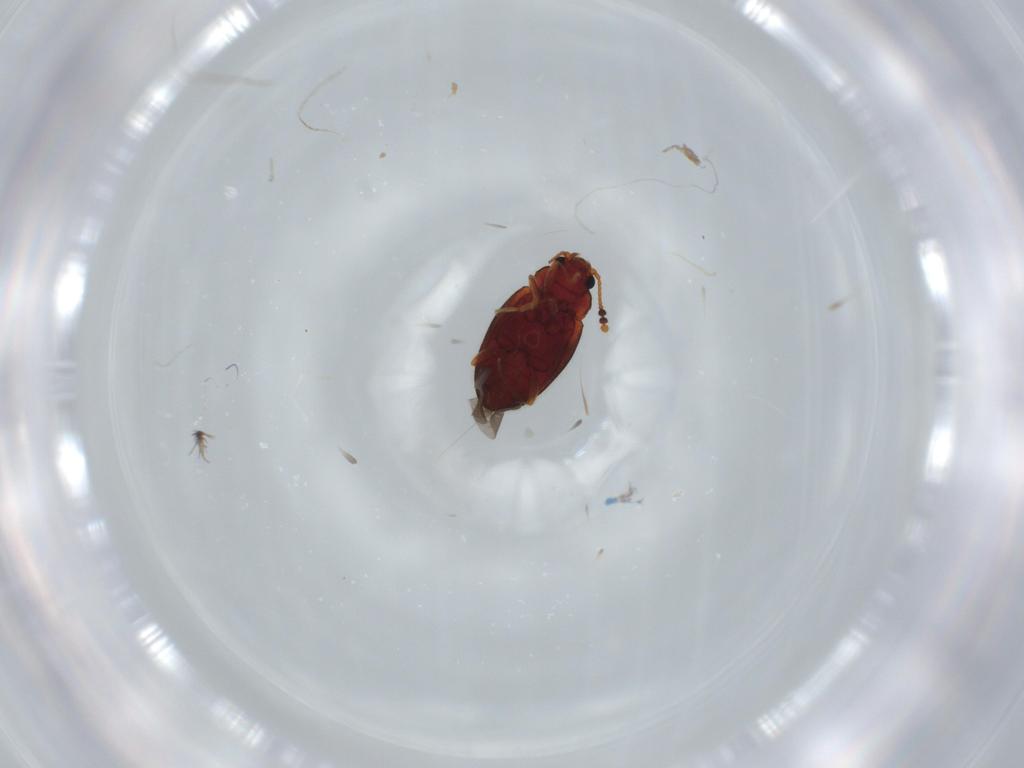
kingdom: Animalia
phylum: Arthropoda
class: Insecta
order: Coleoptera
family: Chrysomelidae
